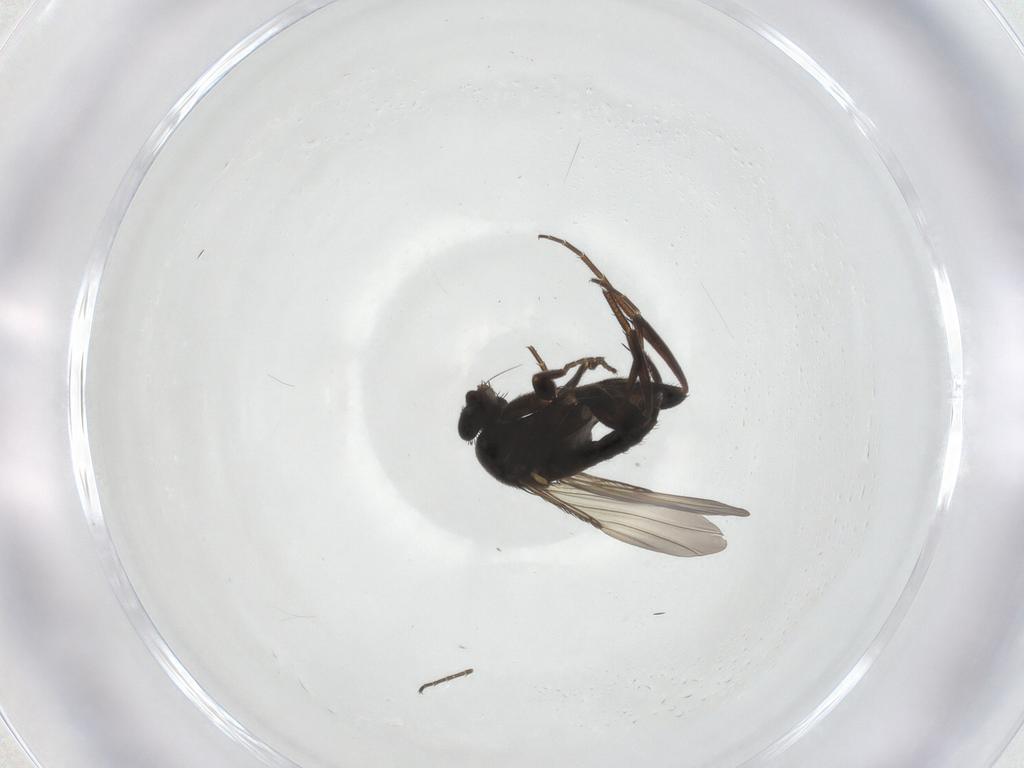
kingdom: Animalia
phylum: Arthropoda
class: Insecta
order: Diptera
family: Phoridae
